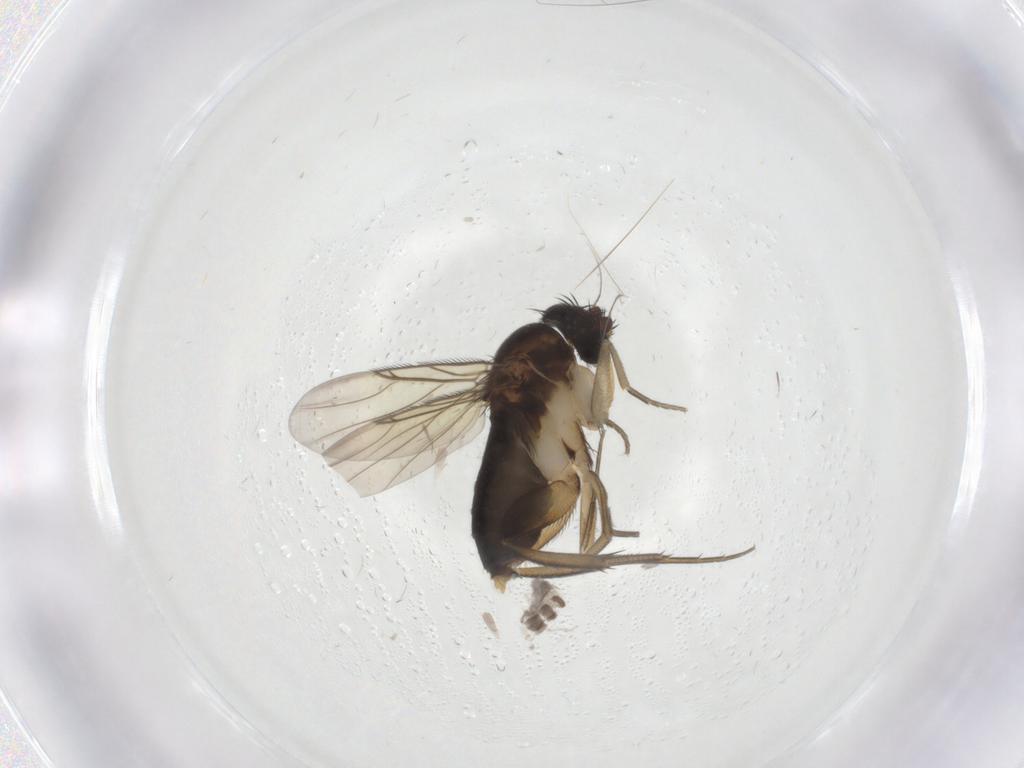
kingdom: Animalia
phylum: Arthropoda
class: Insecta
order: Diptera
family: Phoridae
